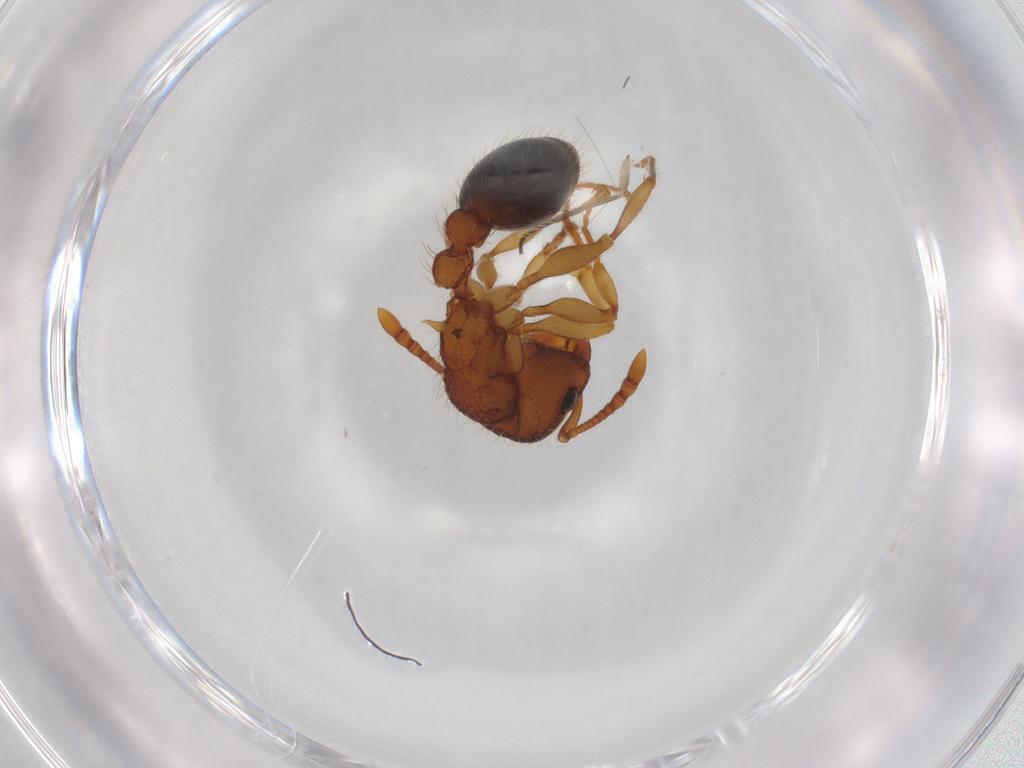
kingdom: Animalia
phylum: Arthropoda
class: Insecta
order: Hymenoptera
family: Formicidae
